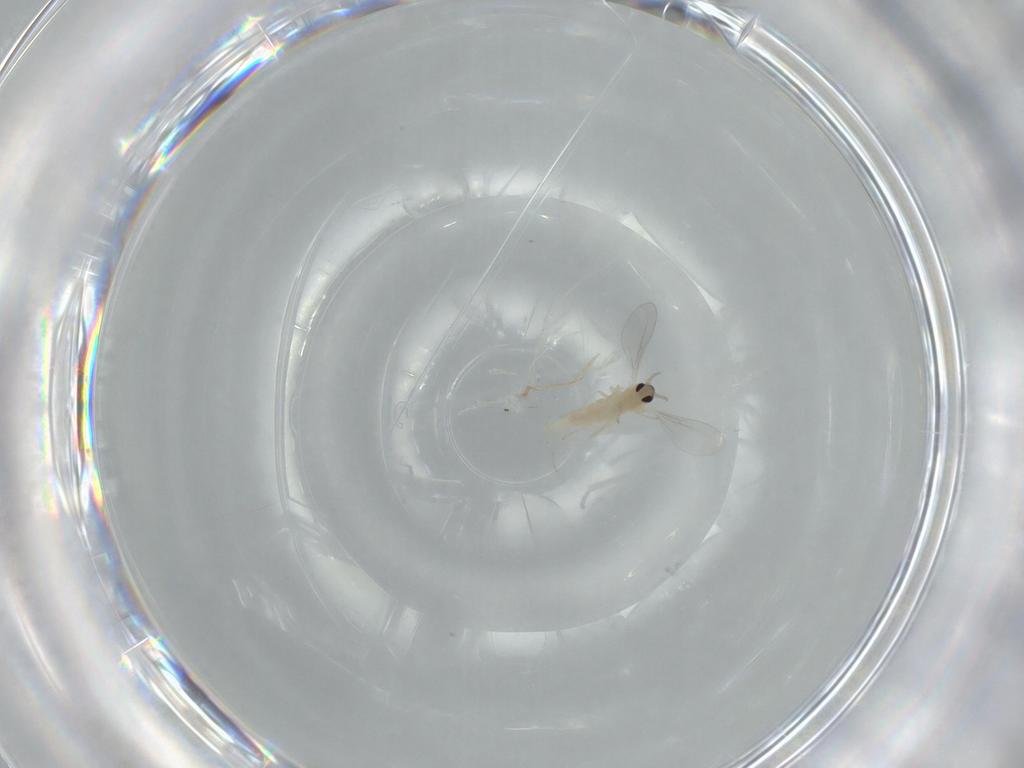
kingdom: Animalia
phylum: Arthropoda
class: Insecta
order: Diptera
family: Cecidomyiidae
